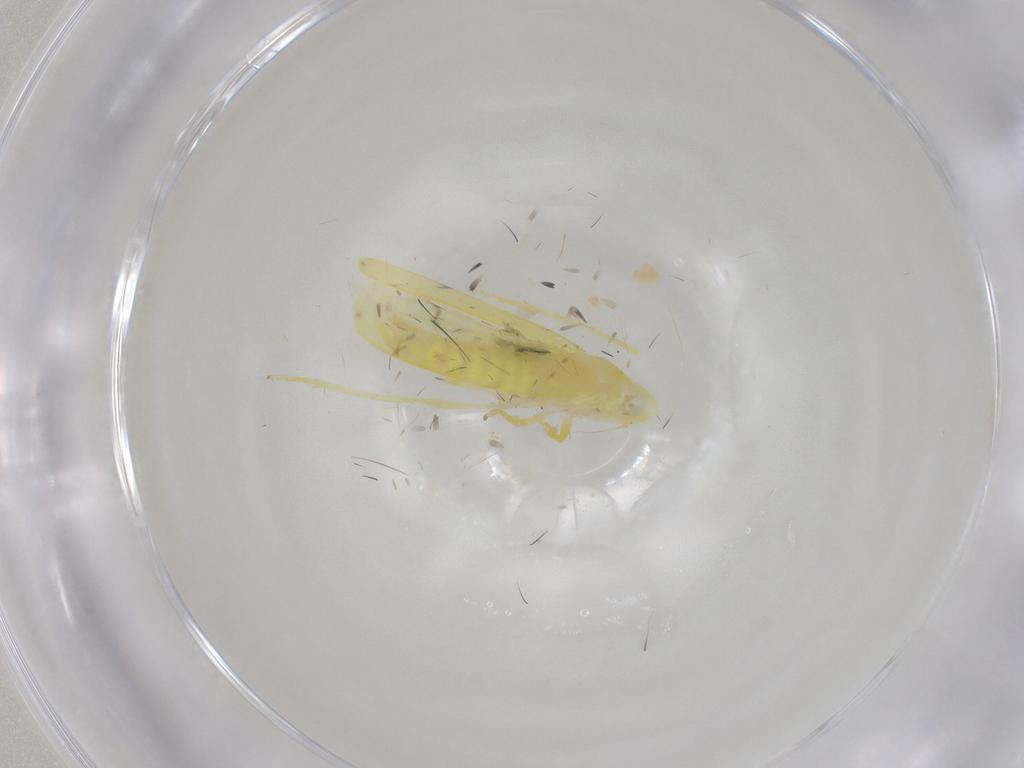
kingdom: Animalia
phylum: Arthropoda
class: Insecta
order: Hemiptera
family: Cicadellidae
